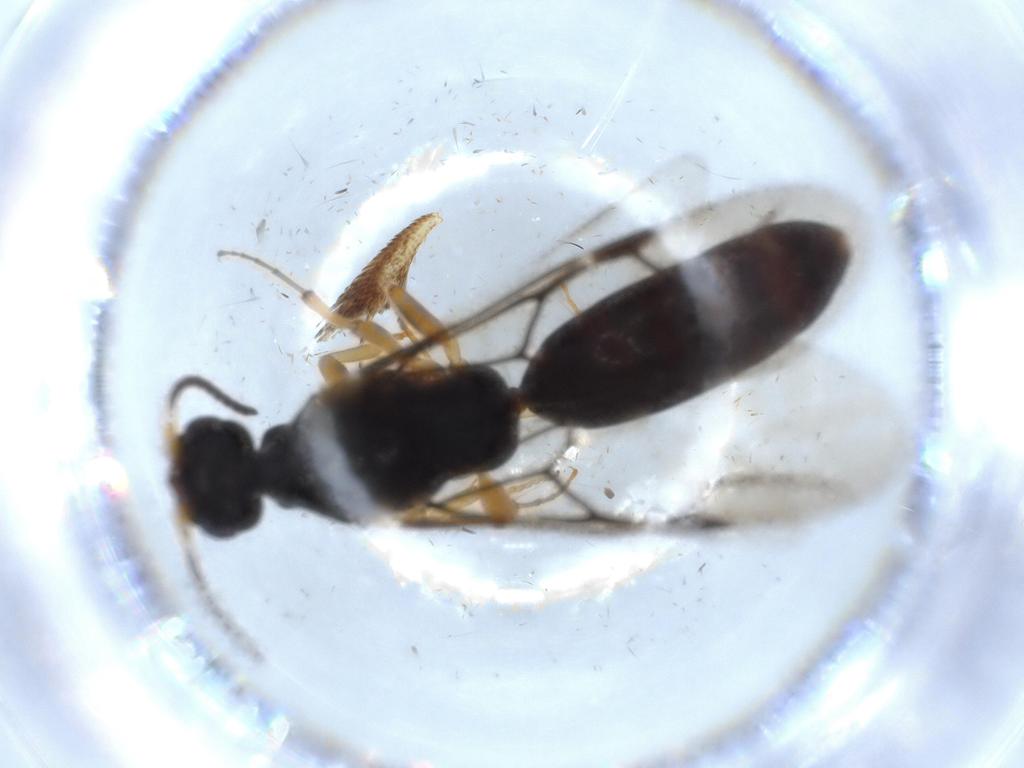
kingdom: Animalia
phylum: Arthropoda
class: Insecta
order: Hymenoptera
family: Bethylidae
